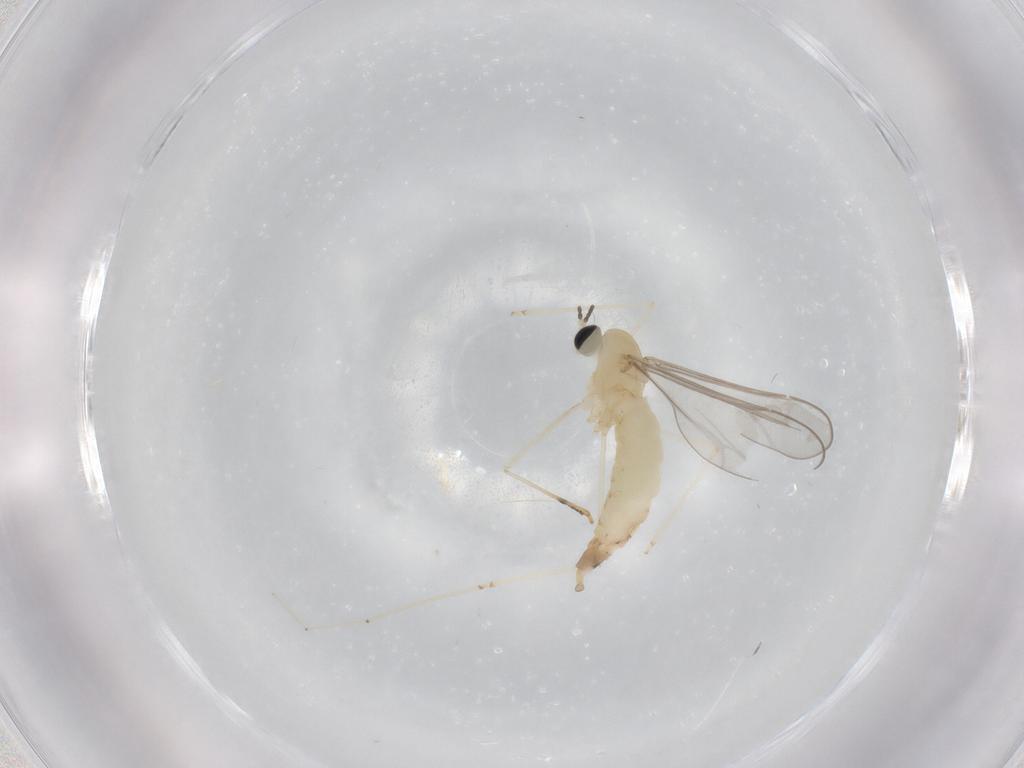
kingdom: Animalia
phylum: Arthropoda
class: Insecta
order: Diptera
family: Cecidomyiidae
